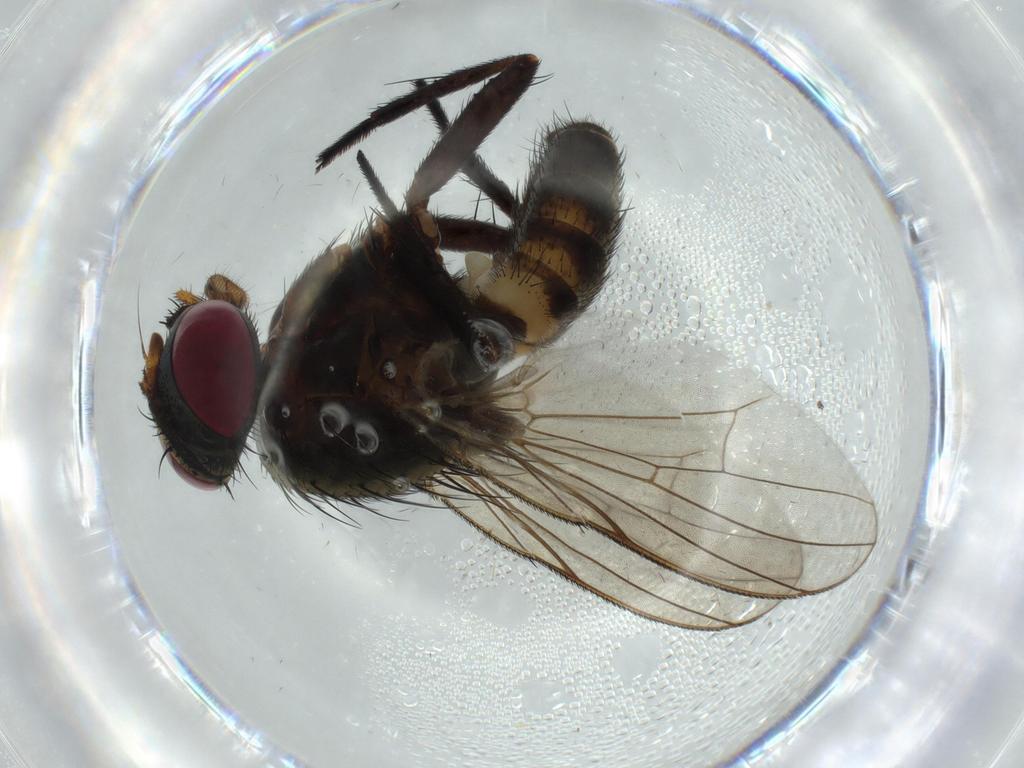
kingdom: Animalia
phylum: Arthropoda
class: Insecta
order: Diptera
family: Fannia
